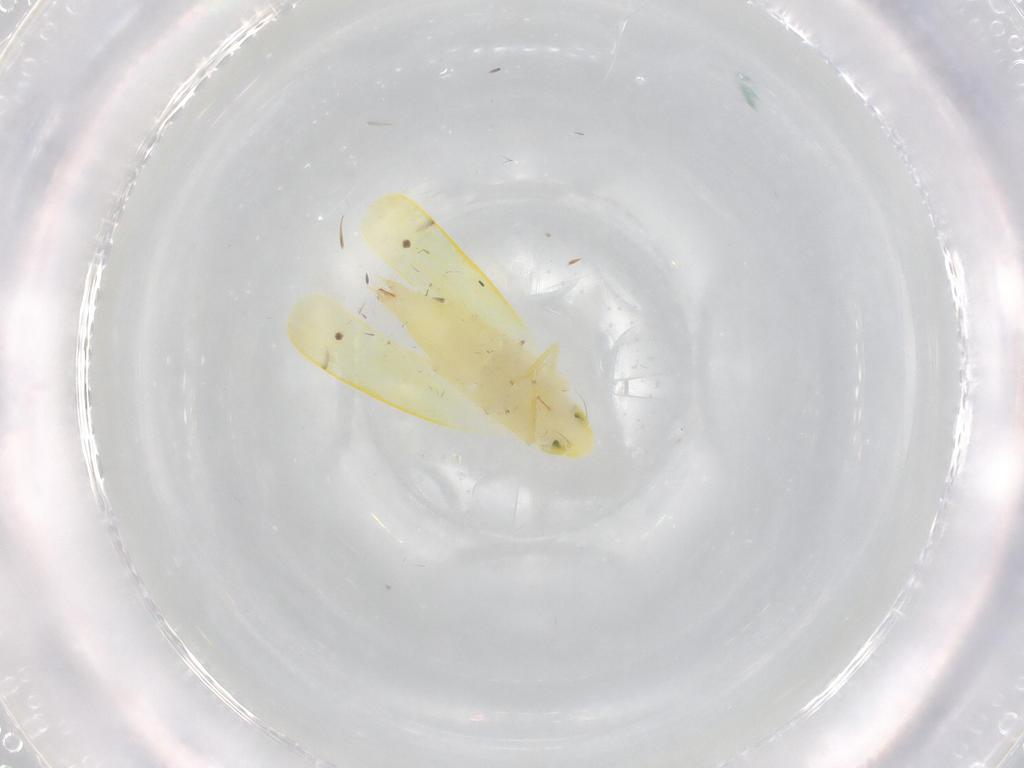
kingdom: Animalia
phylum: Arthropoda
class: Insecta
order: Hemiptera
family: Cicadellidae
